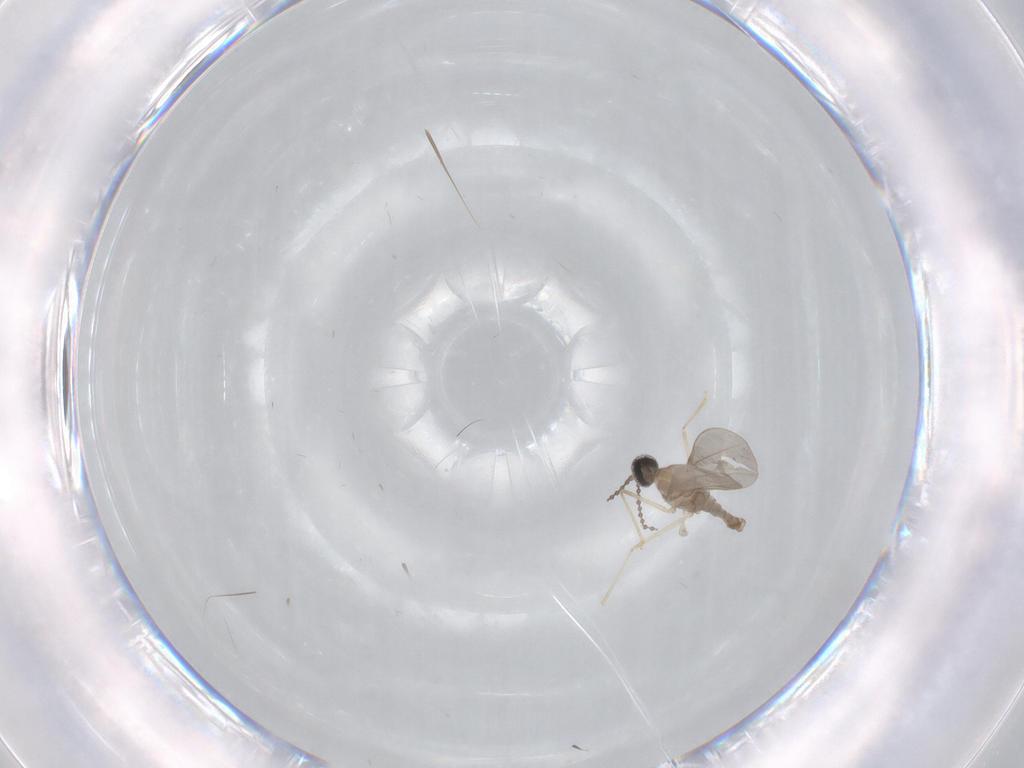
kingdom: Animalia
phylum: Arthropoda
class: Insecta
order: Diptera
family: Cecidomyiidae
